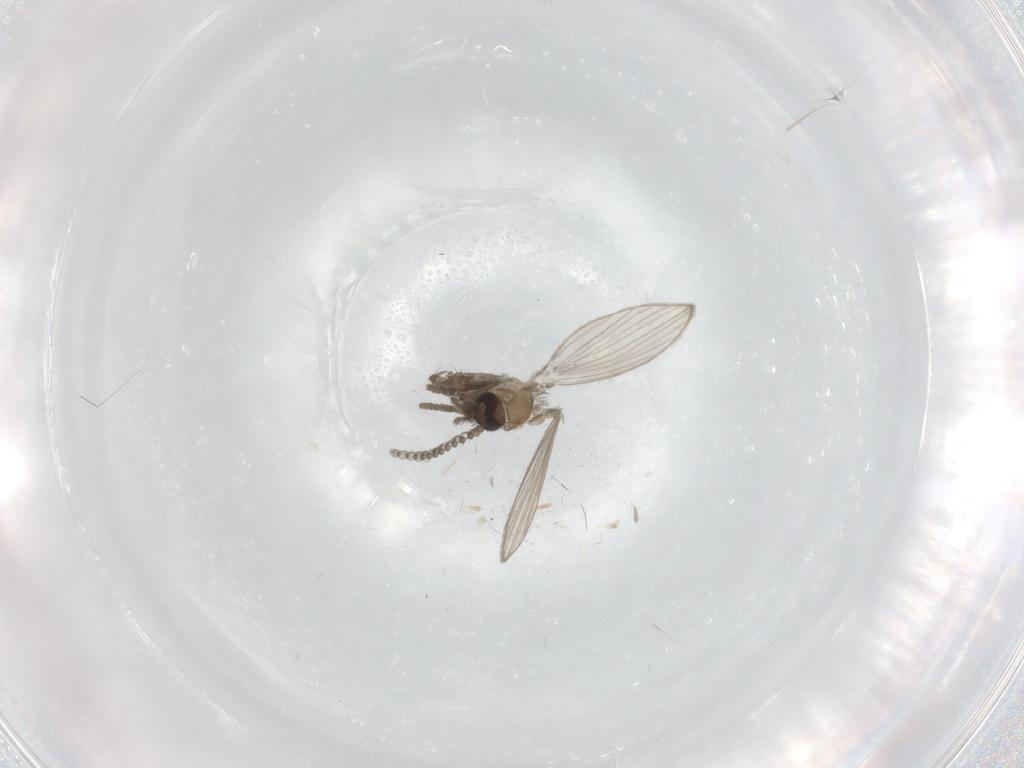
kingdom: Animalia
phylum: Arthropoda
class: Insecta
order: Diptera
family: Psychodidae
